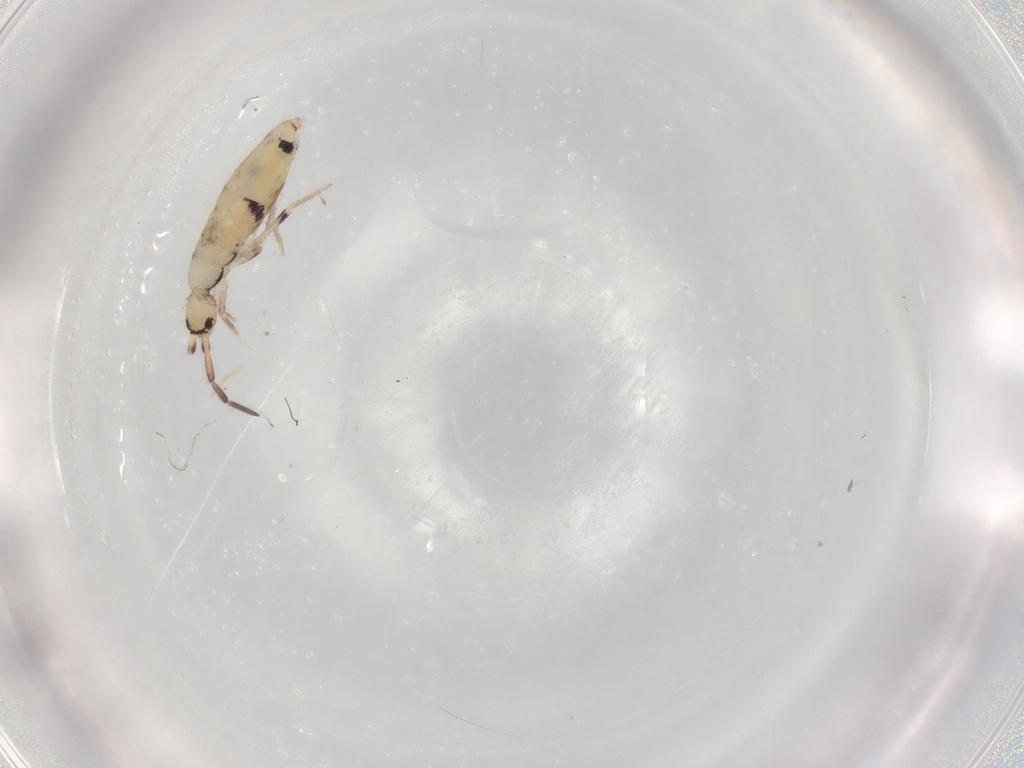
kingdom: Animalia
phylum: Arthropoda
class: Collembola
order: Entomobryomorpha
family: Entomobryidae
